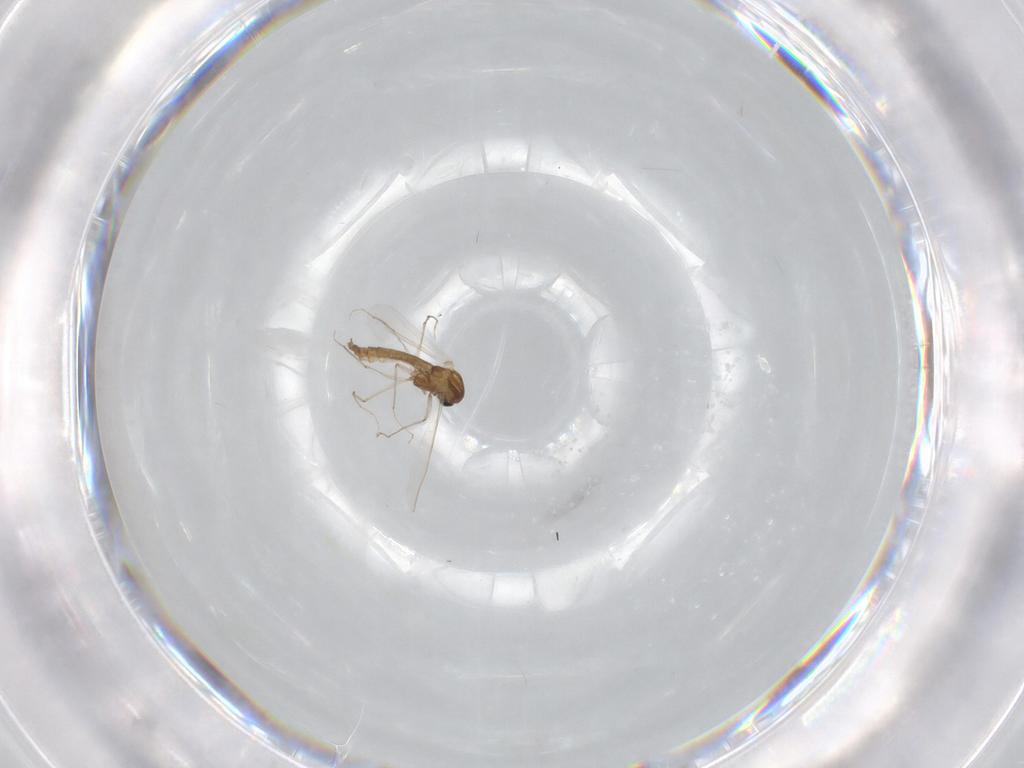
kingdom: Animalia
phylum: Arthropoda
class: Insecta
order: Diptera
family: Chironomidae
